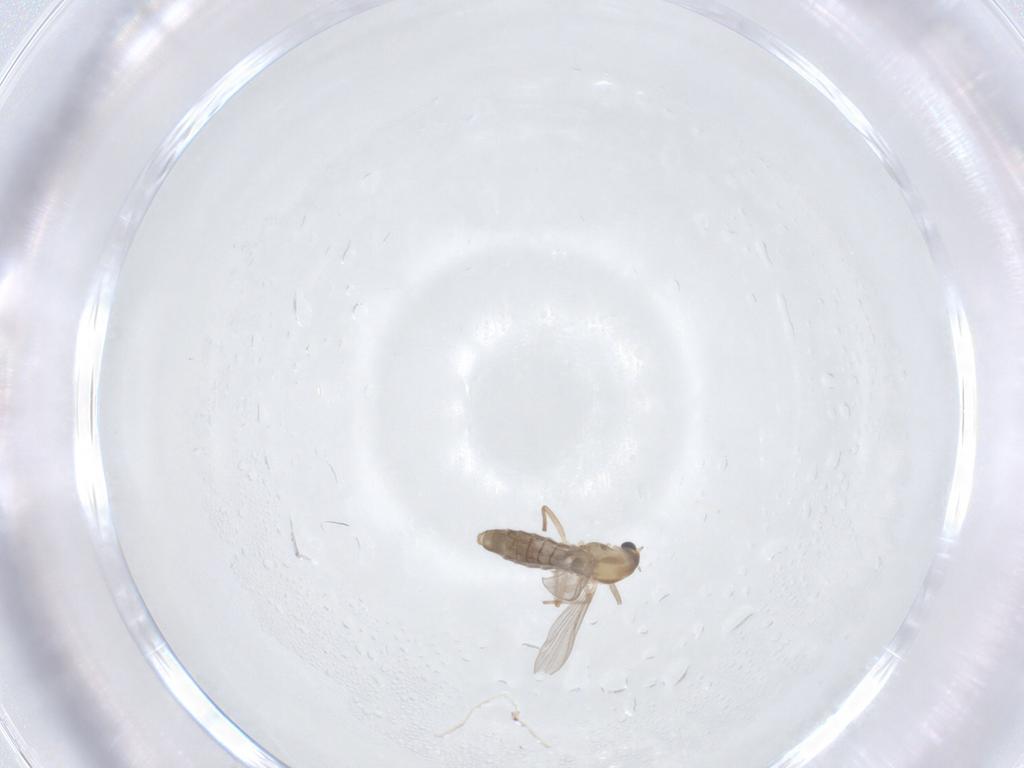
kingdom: Animalia
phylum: Arthropoda
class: Insecta
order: Diptera
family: Chironomidae
